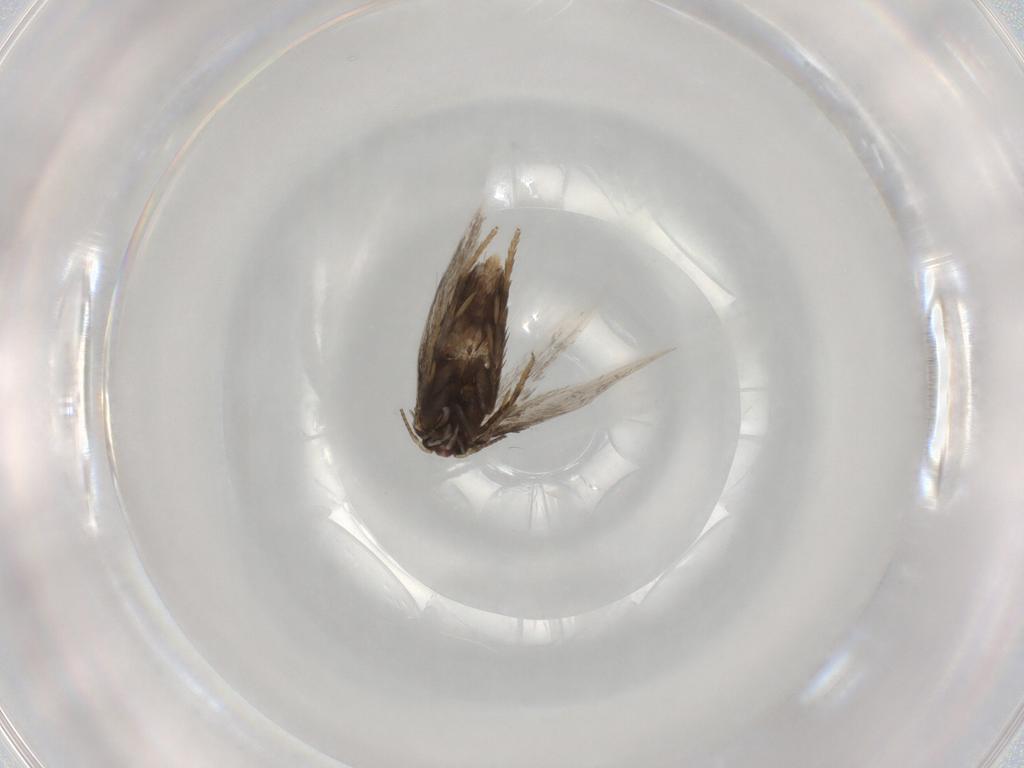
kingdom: Animalia
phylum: Arthropoda
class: Insecta
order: Lepidoptera
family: Nepticulidae
